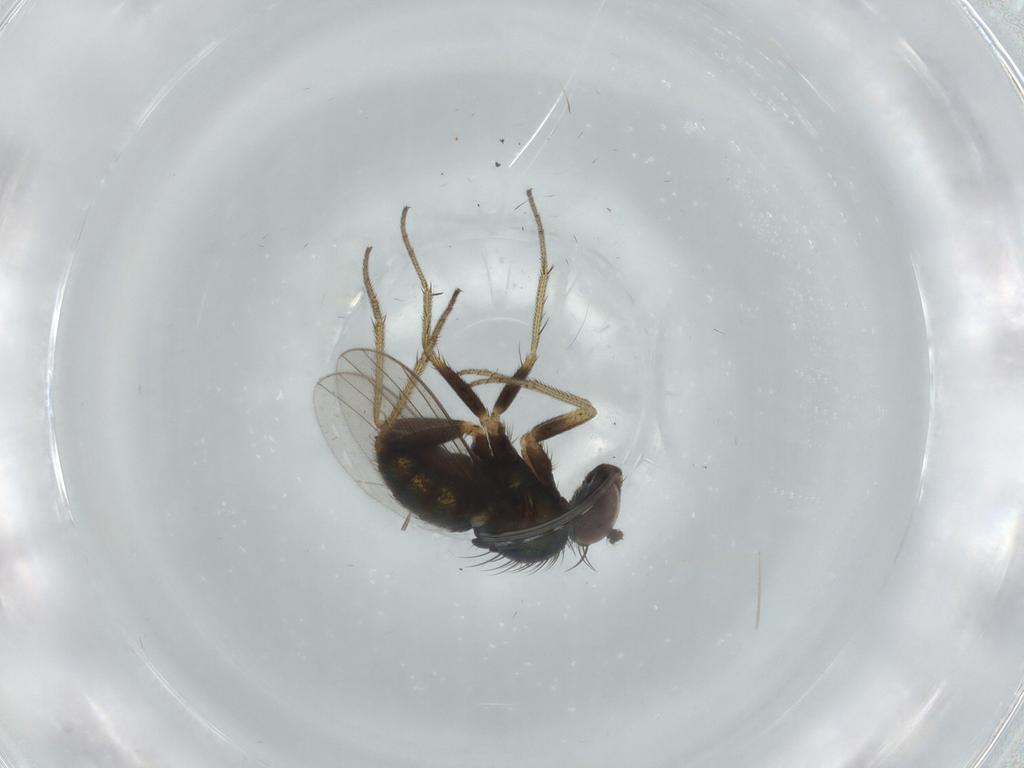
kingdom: Animalia
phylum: Arthropoda
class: Insecta
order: Diptera
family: Cecidomyiidae
